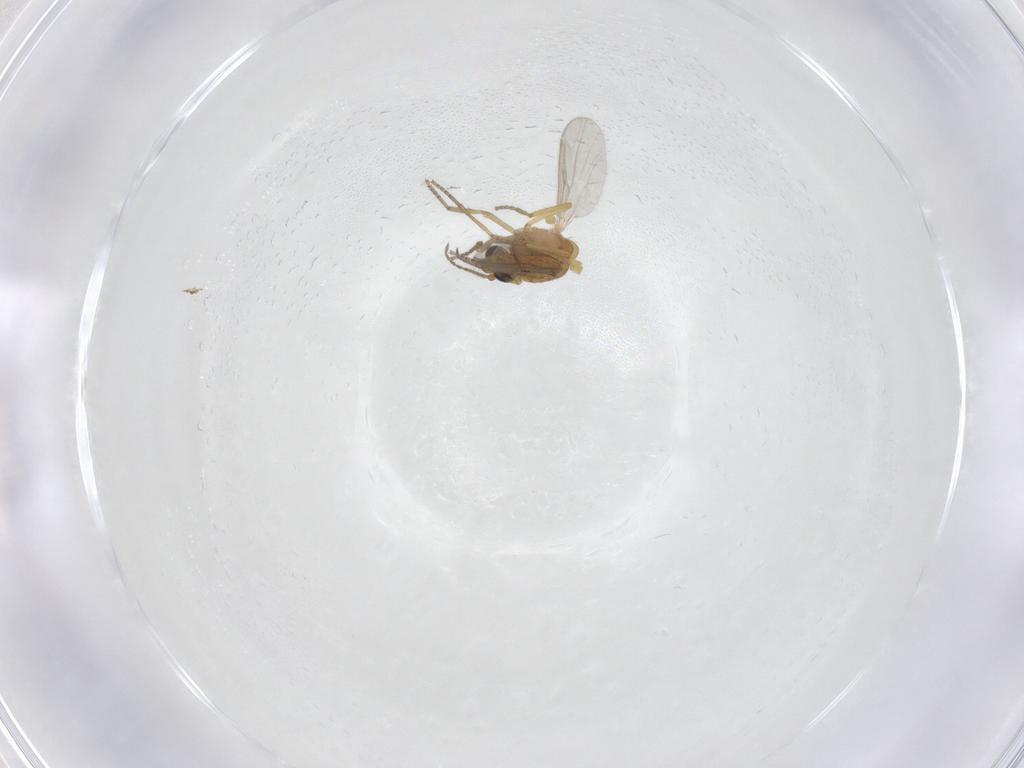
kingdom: Animalia
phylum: Arthropoda
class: Insecta
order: Diptera
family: Ceratopogonidae
